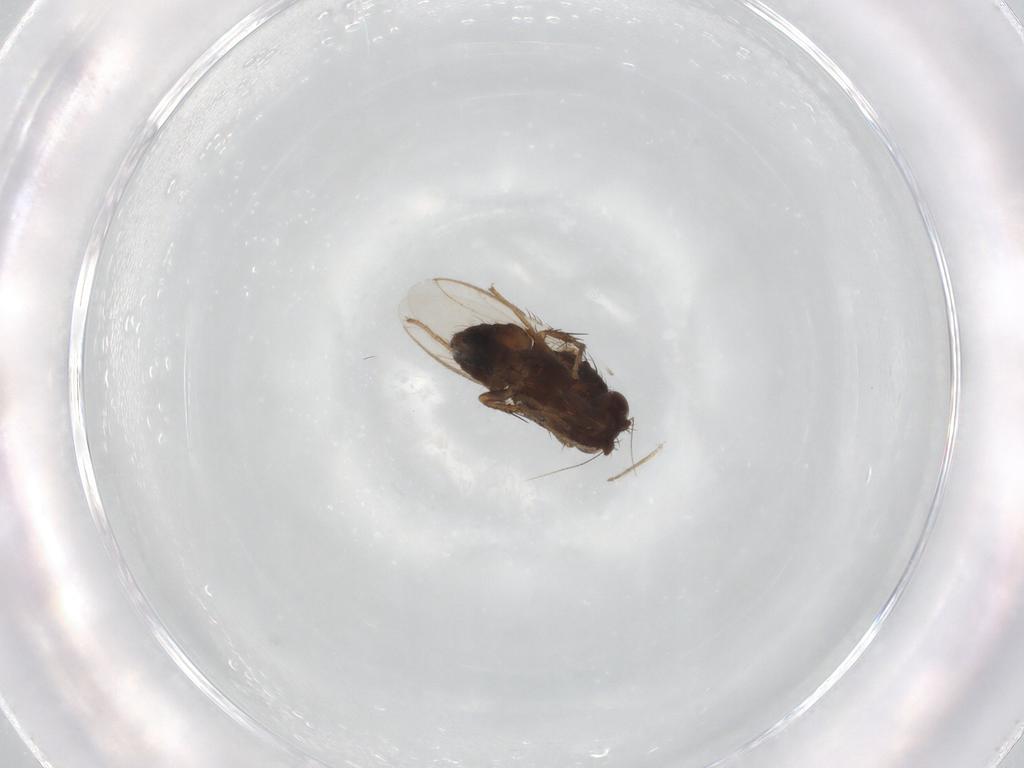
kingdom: Animalia
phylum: Arthropoda
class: Insecta
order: Diptera
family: Sphaeroceridae
